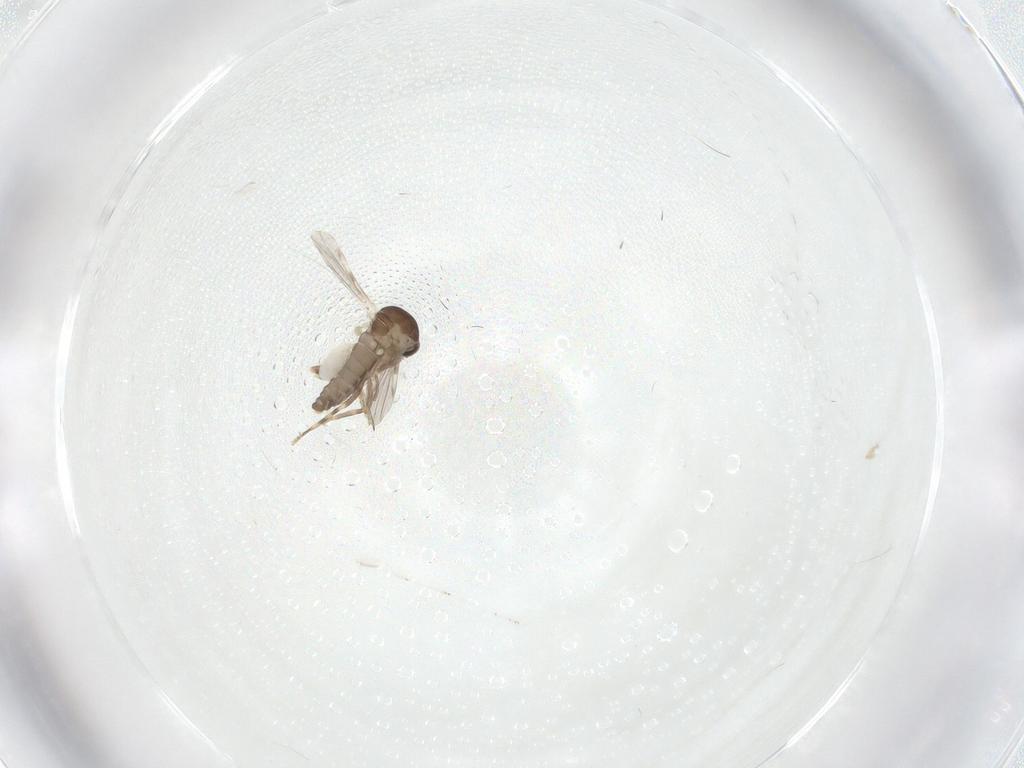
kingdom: Animalia
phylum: Arthropoda
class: Insecta
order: Diptera
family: Ceratopogonidae
